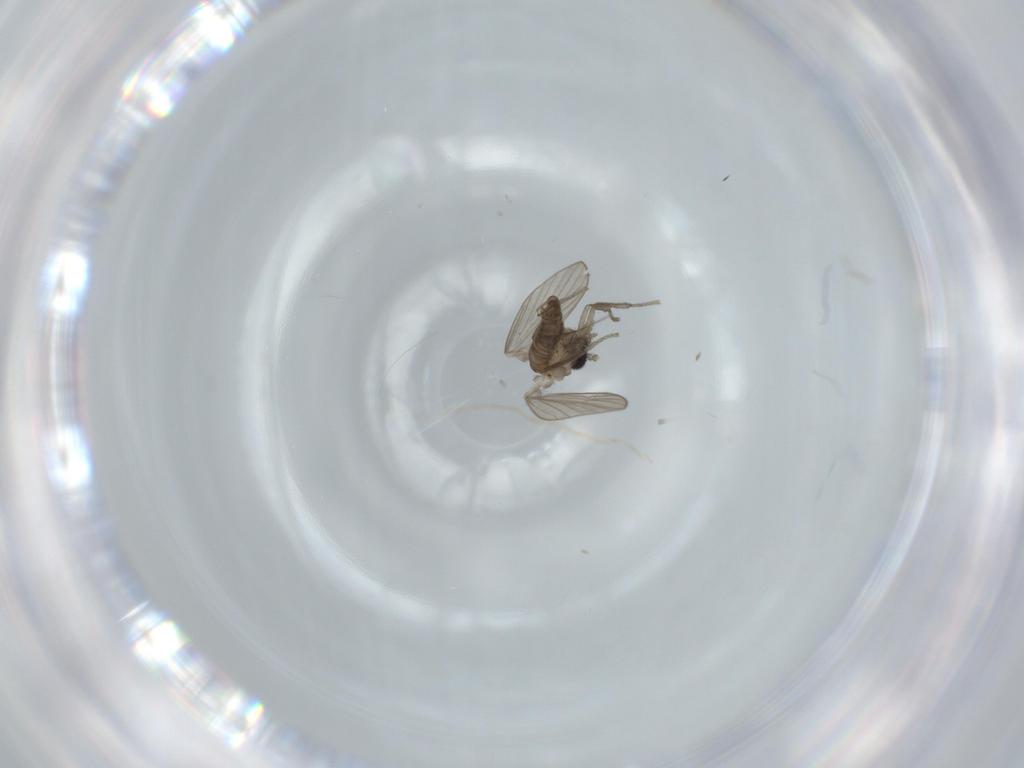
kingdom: Animalia
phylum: Arthropoda
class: Insecta
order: Diptera
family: Cecidomyiidae
